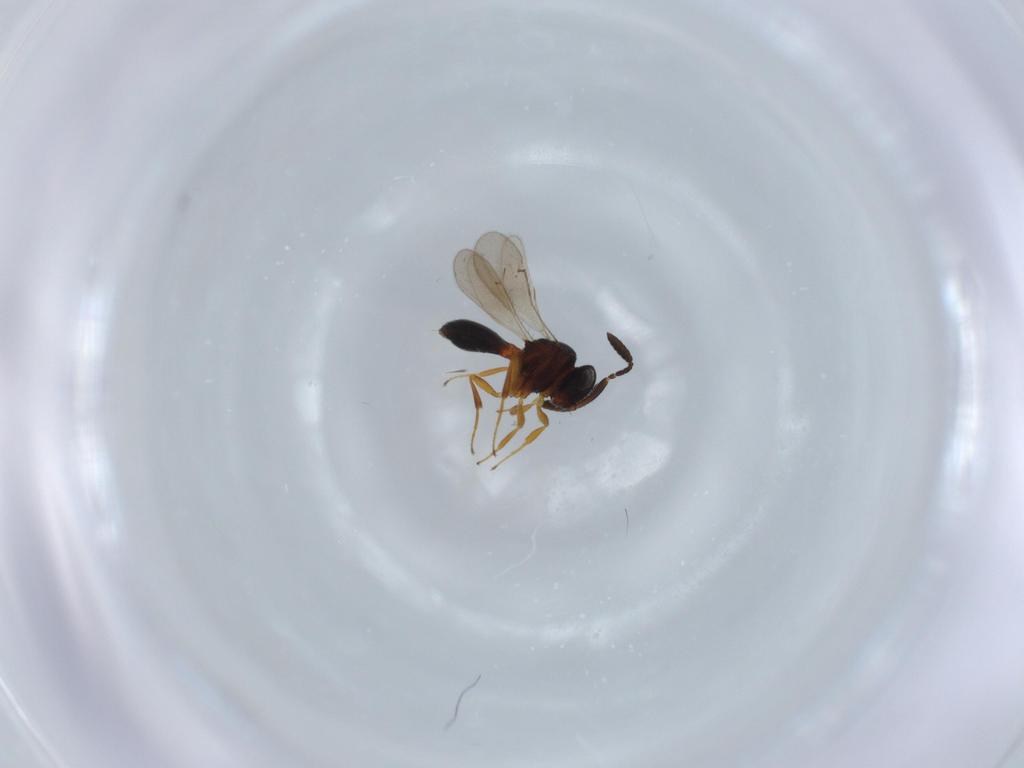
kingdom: Animalia
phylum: Arthropoda
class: Insecta
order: Hymenoptera
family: Scelionidae
